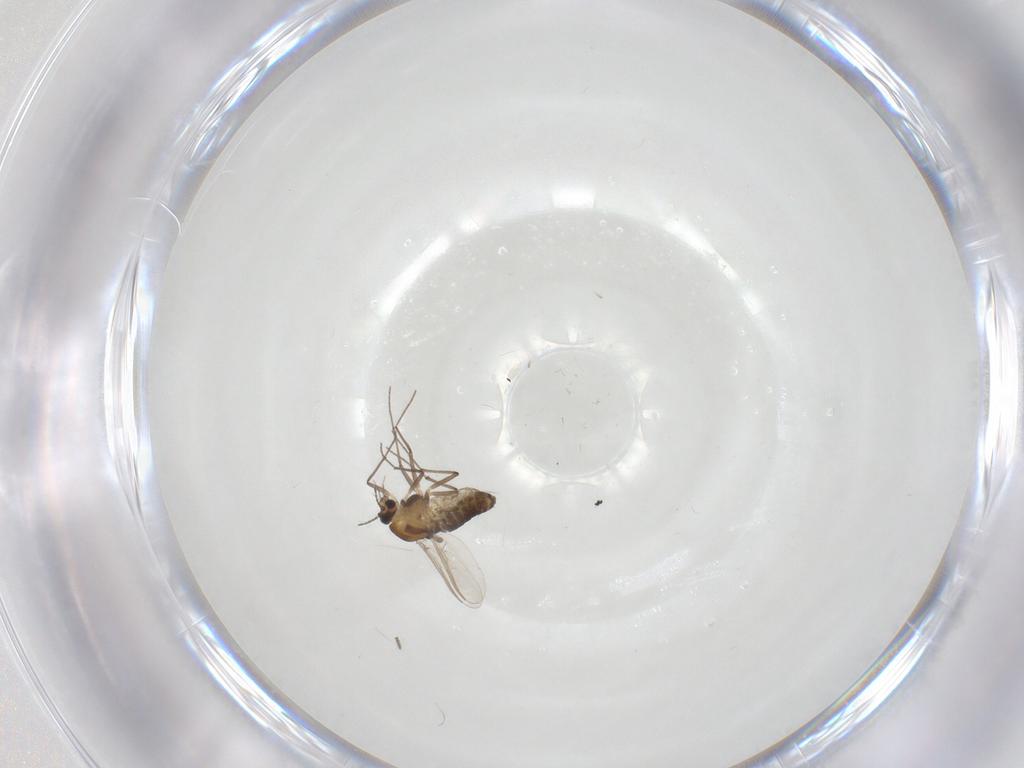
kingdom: Animalia
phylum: Arthropoda
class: Insecta
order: Diptera
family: Chironomidae
